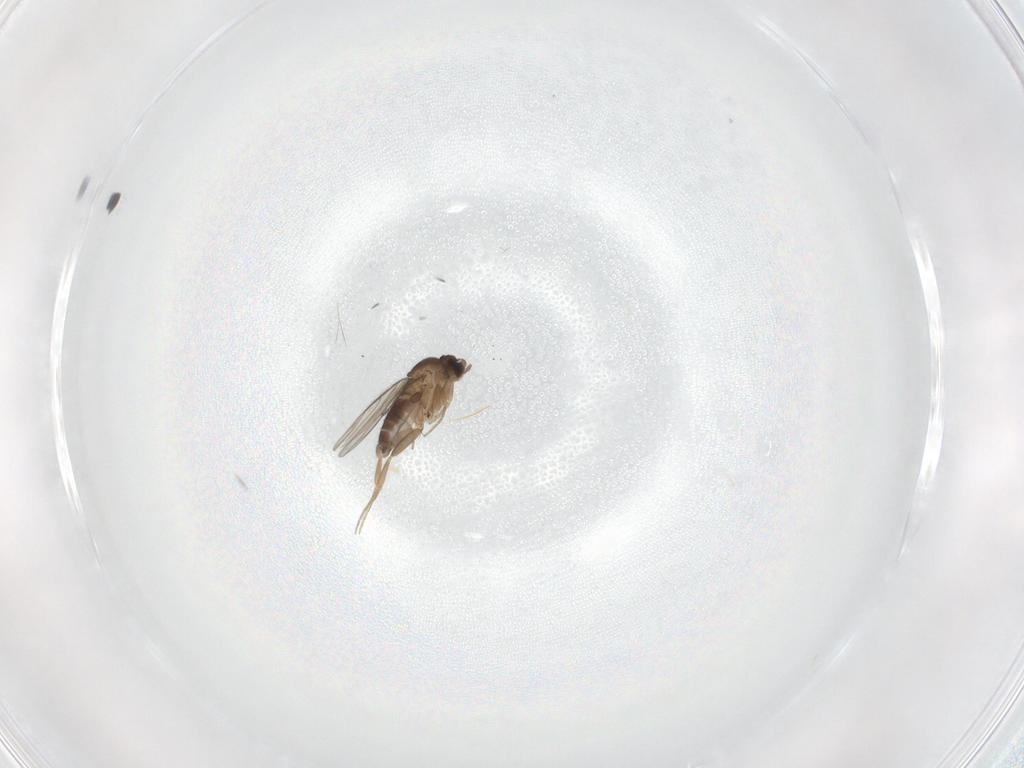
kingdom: Animalia
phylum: Arthropoda
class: Insecta
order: Diptera
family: Phoridae
